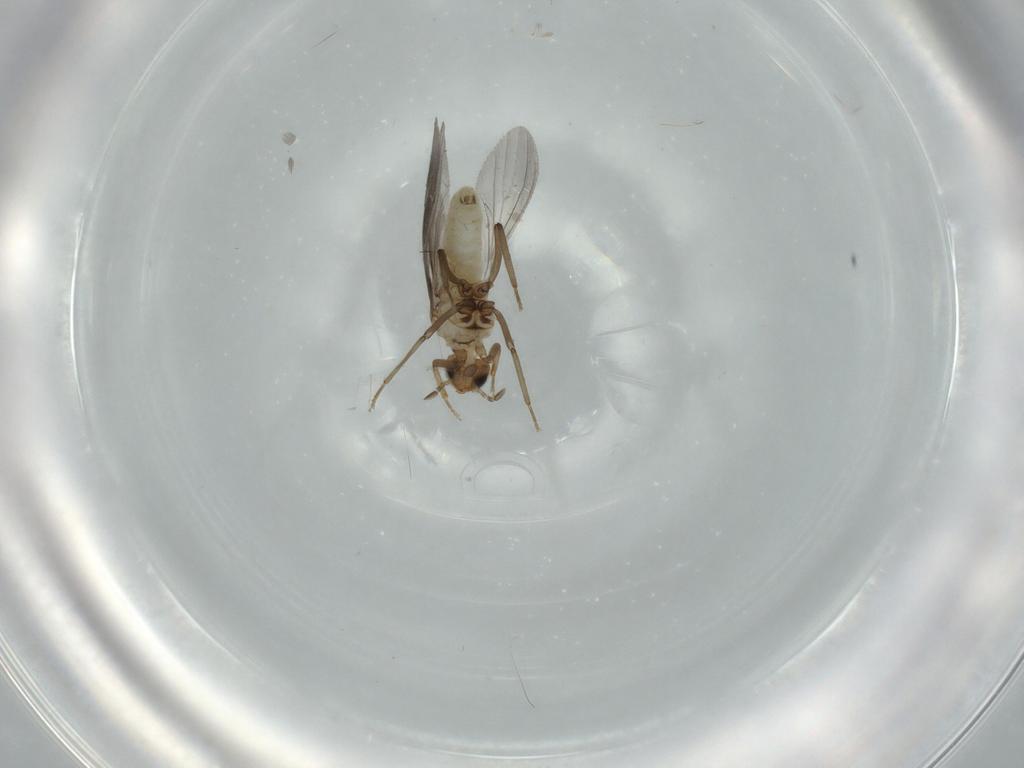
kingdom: Animalia
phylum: Arthropoda
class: Insecta
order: Neuroptera
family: Coniopterygidae
